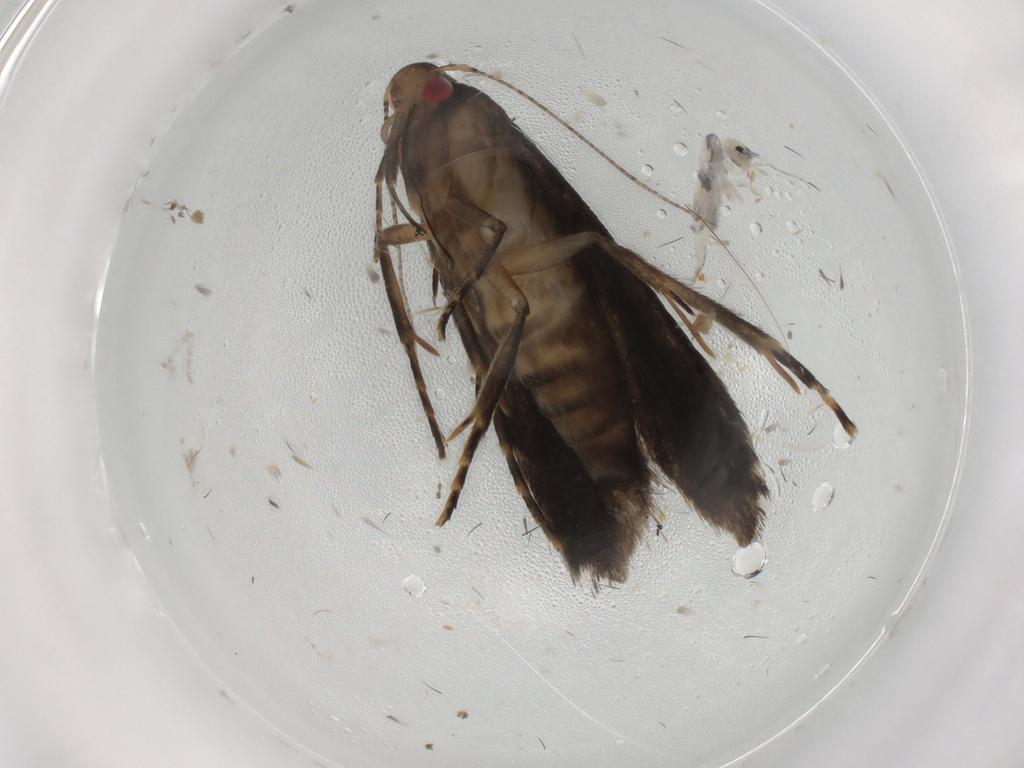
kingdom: Animalia
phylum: Arthropoda
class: Insecta
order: Lepidoptera
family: Gelechiidae
